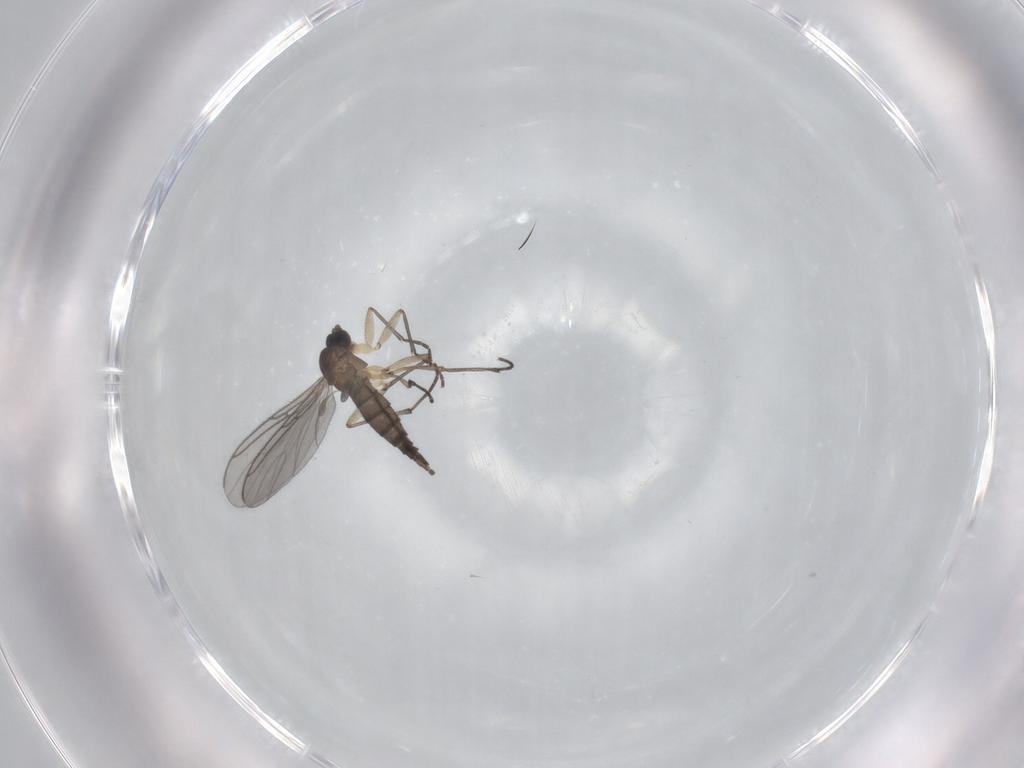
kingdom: Animalia
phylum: Arthropoda
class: Insecta
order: Diptera
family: Sciaridae
